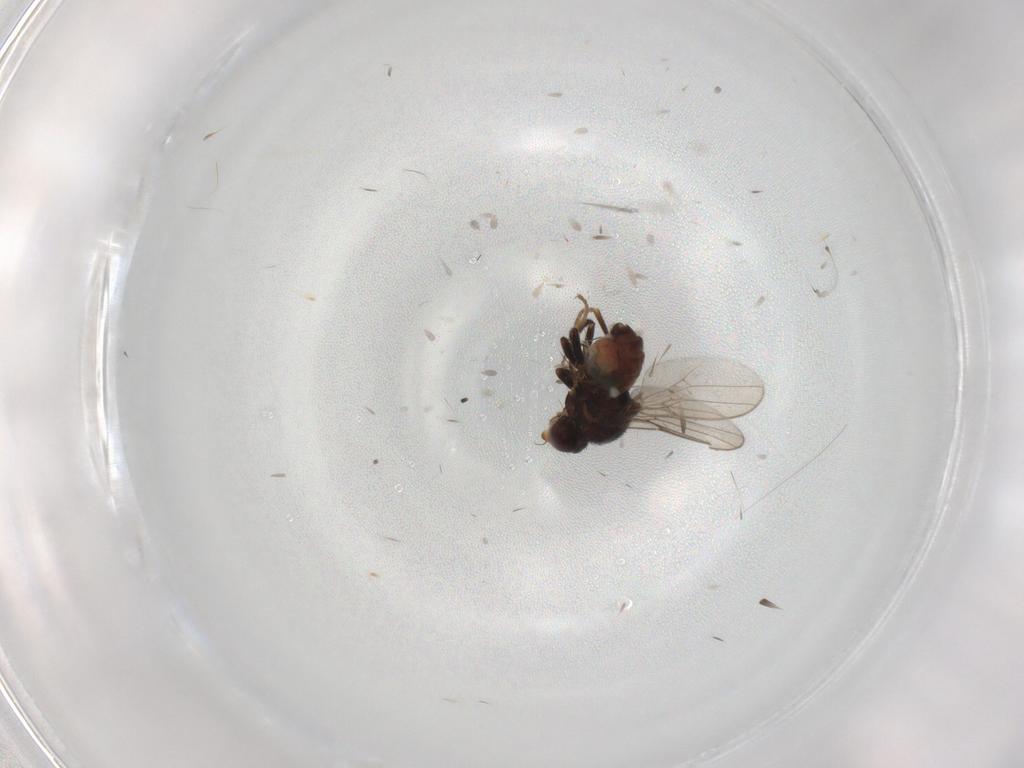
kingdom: Animalia
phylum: Arthropoda
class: Insecta
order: Diptera
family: Chloropidae
